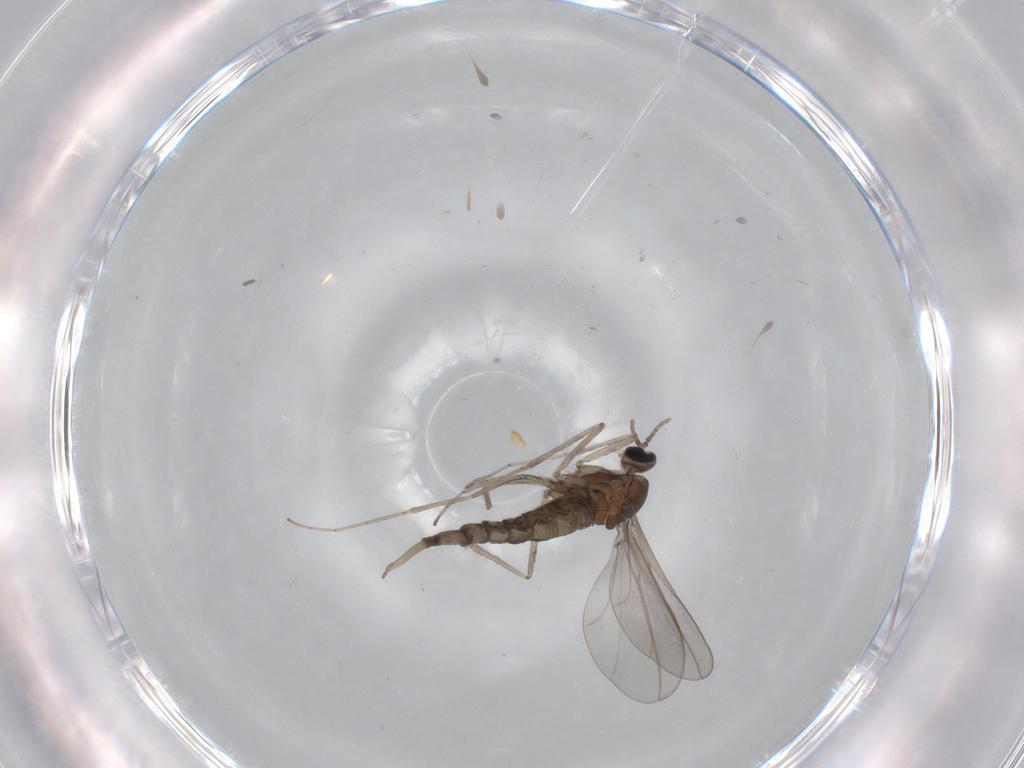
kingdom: Animalia
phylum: Arthropoda
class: Insecta
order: Diptera
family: Cecidomyiidae
